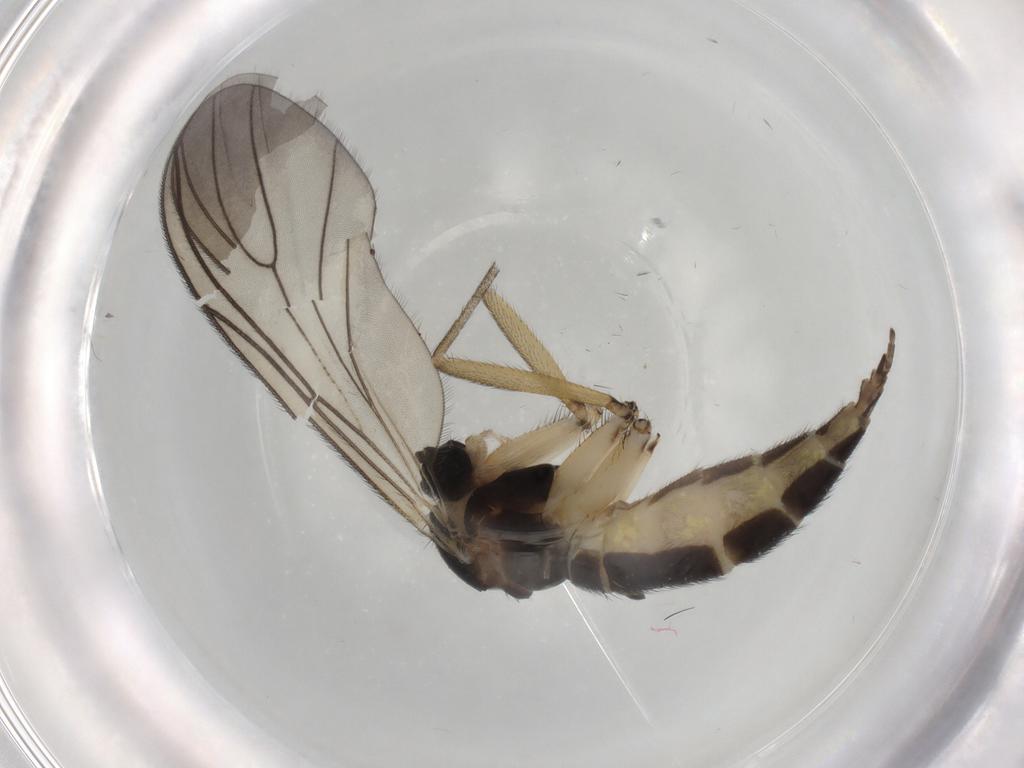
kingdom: Animalia
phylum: Arthropoda
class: Insecta
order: Diptera
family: Sciaridae
